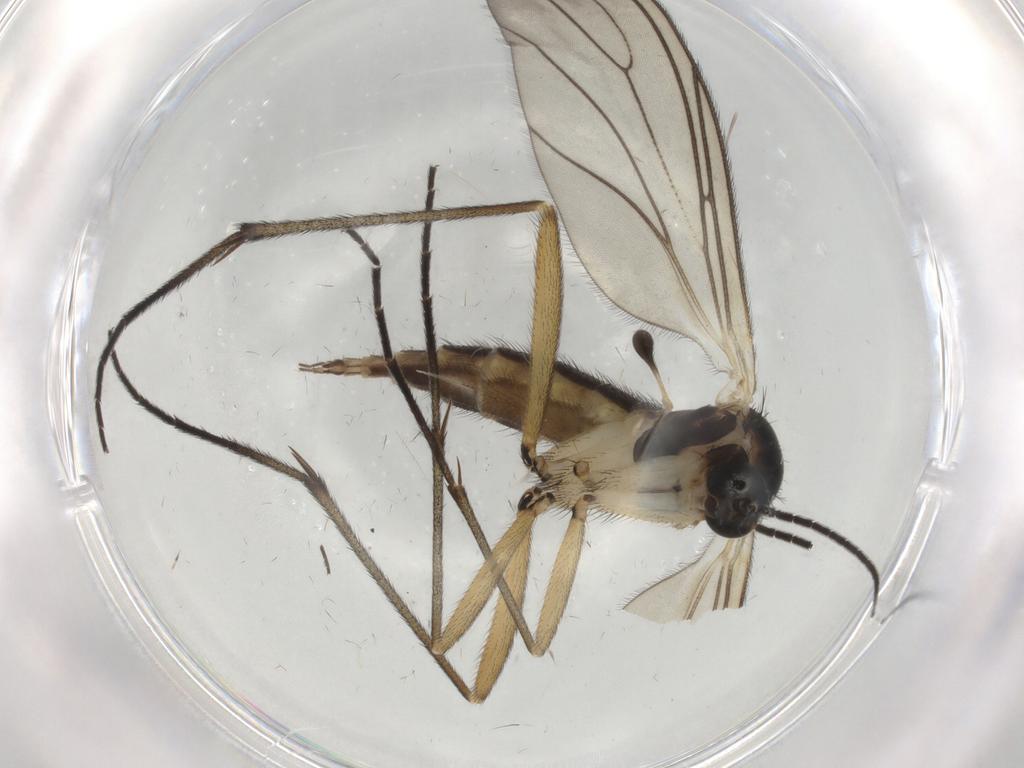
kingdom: Animalia
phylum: Arthropoda
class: Insecta
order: Diptera
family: Sciaridae
